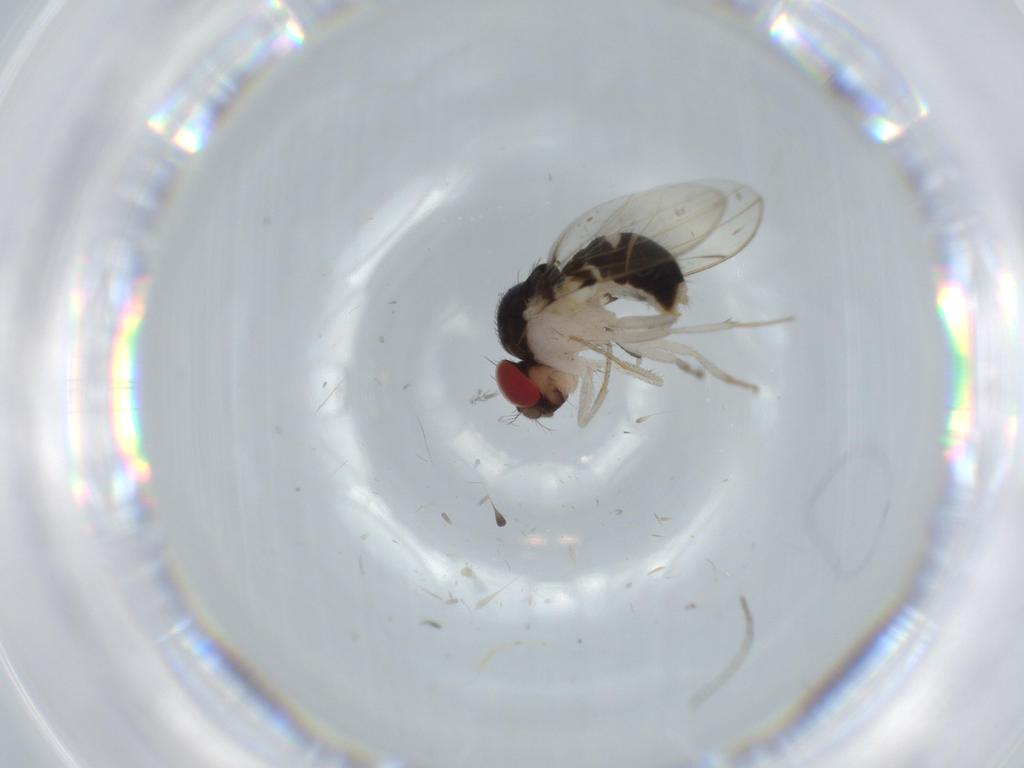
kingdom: Animalia
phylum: Arthropoda
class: Insecta
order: Diptera
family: Drosophilidae
